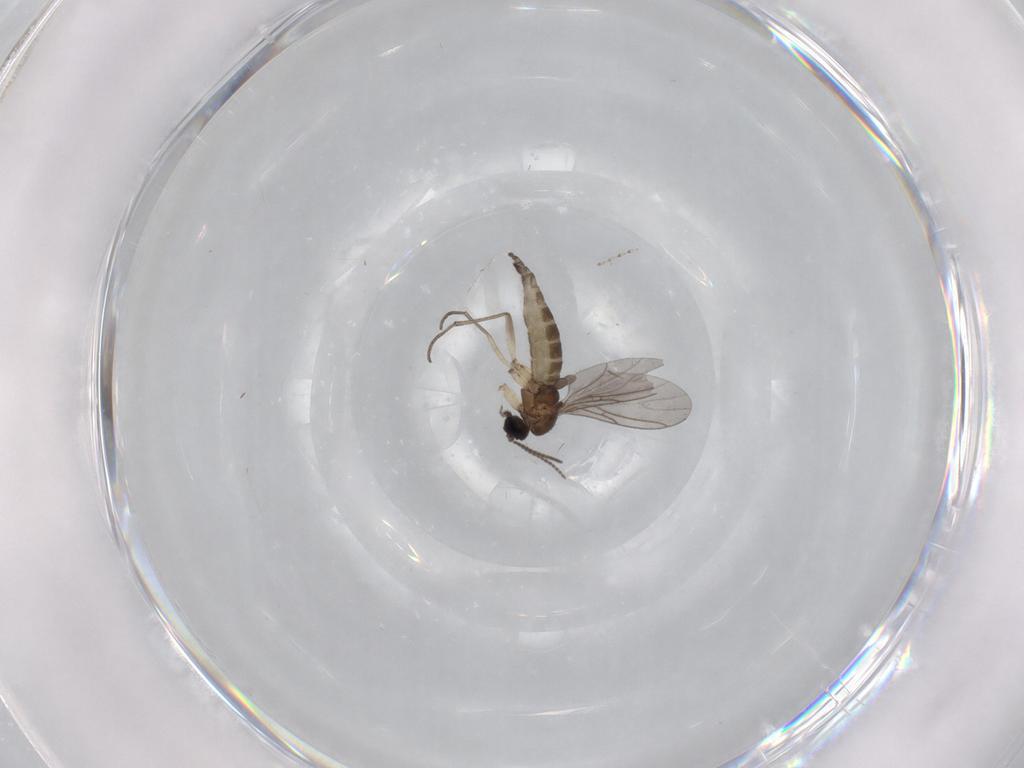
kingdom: Animalia
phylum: Arthropoda
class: Insecta
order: Diptera
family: Sciaridae
